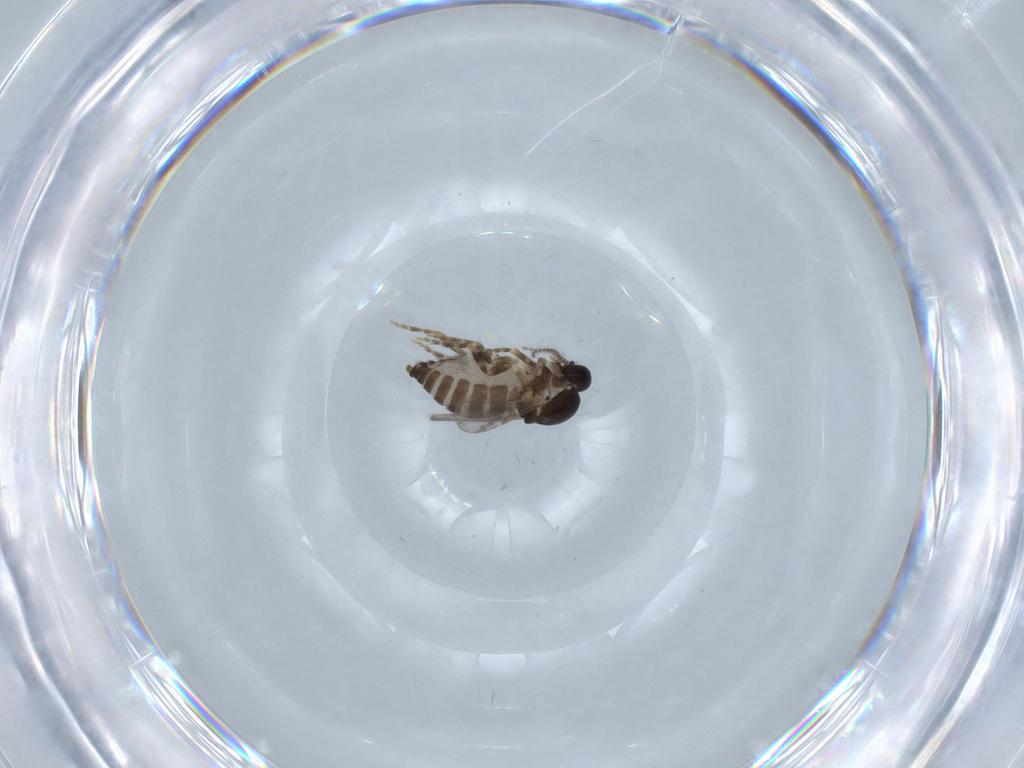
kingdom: Animalia
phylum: Arthropoda
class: Insecta
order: Diptera
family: Ceratopogonidae
